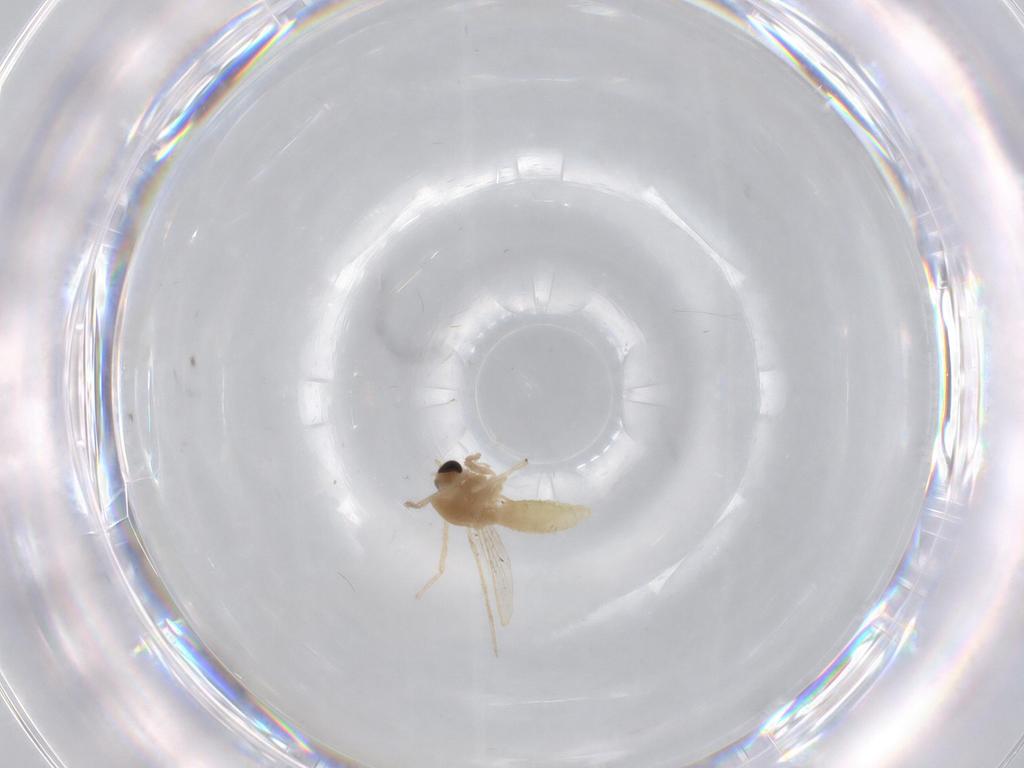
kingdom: Animalia
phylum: Arthropoda
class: Insecta
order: Diptera
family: Chironomidae
